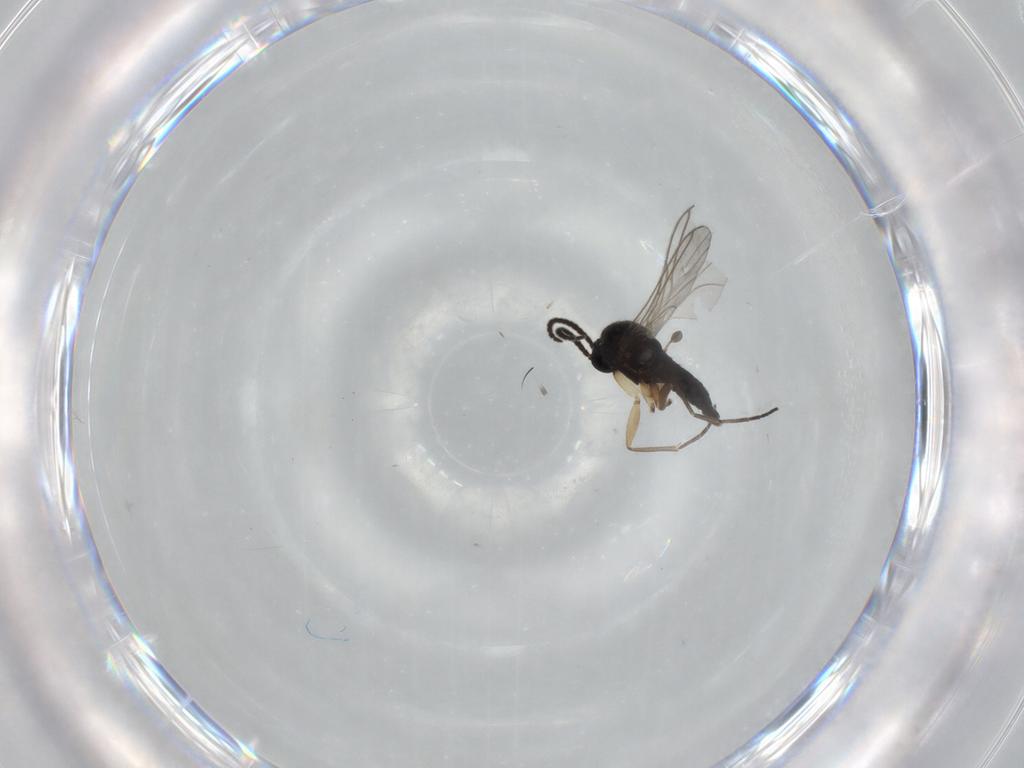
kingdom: Animalia
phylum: Arthropoda
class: Insecta
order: Diptera
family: Sciaridae
